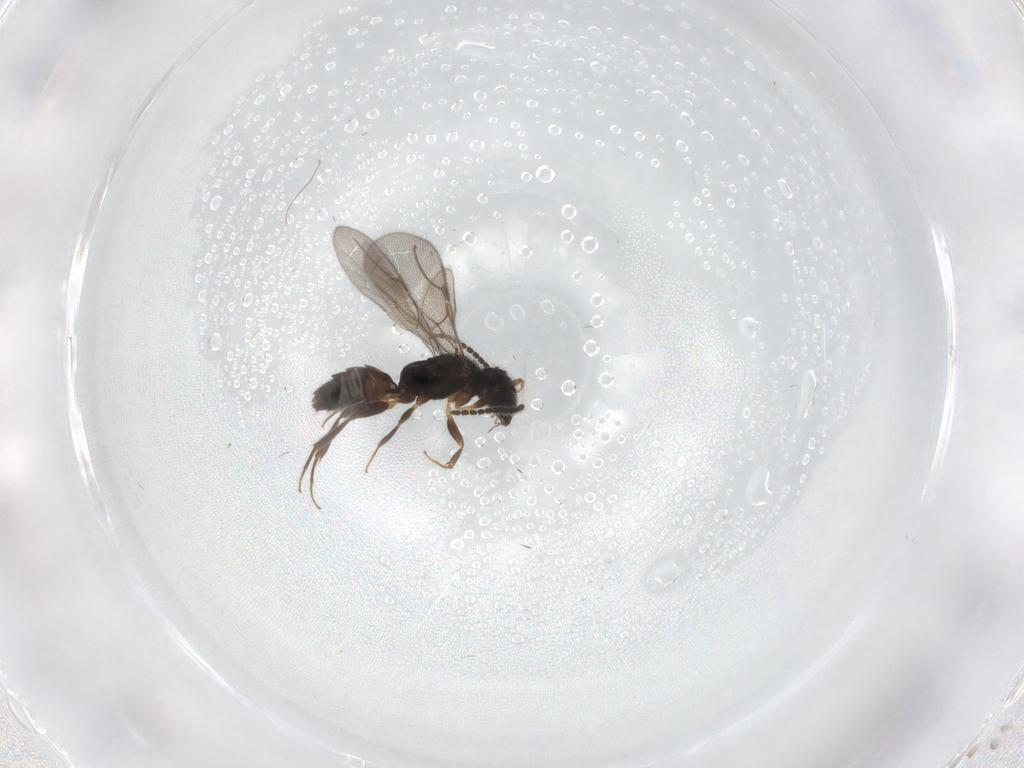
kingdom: Animalia
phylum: Arthropoda
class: Insecta
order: Hymenoptera
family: Bethylidae
